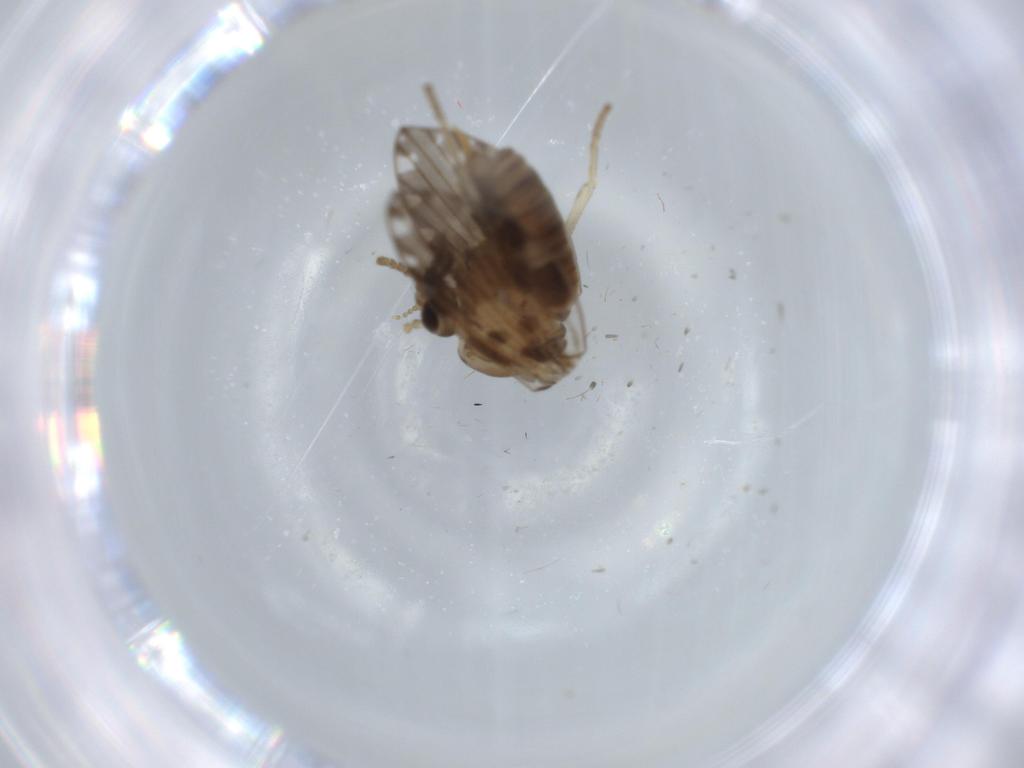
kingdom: Animalia
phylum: Arthropoda
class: Insecta
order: Diptera
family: Psychodidae
